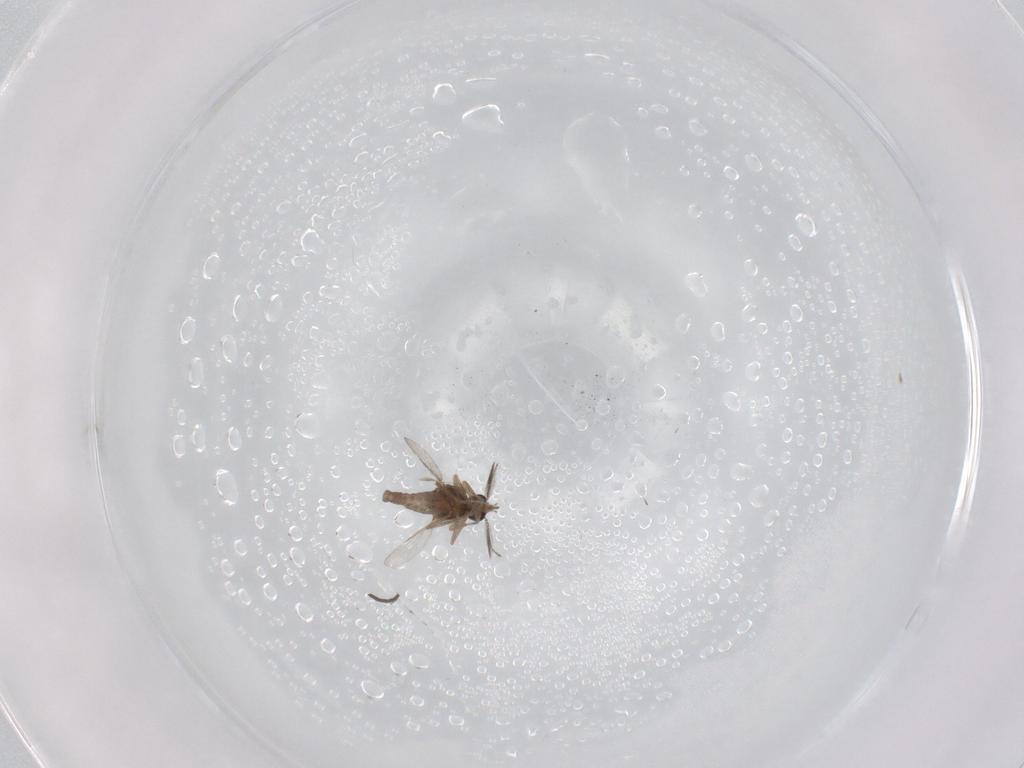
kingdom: Animalia
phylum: Arthropoda
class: Insecta
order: Diptera
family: Ceratopogonidae
